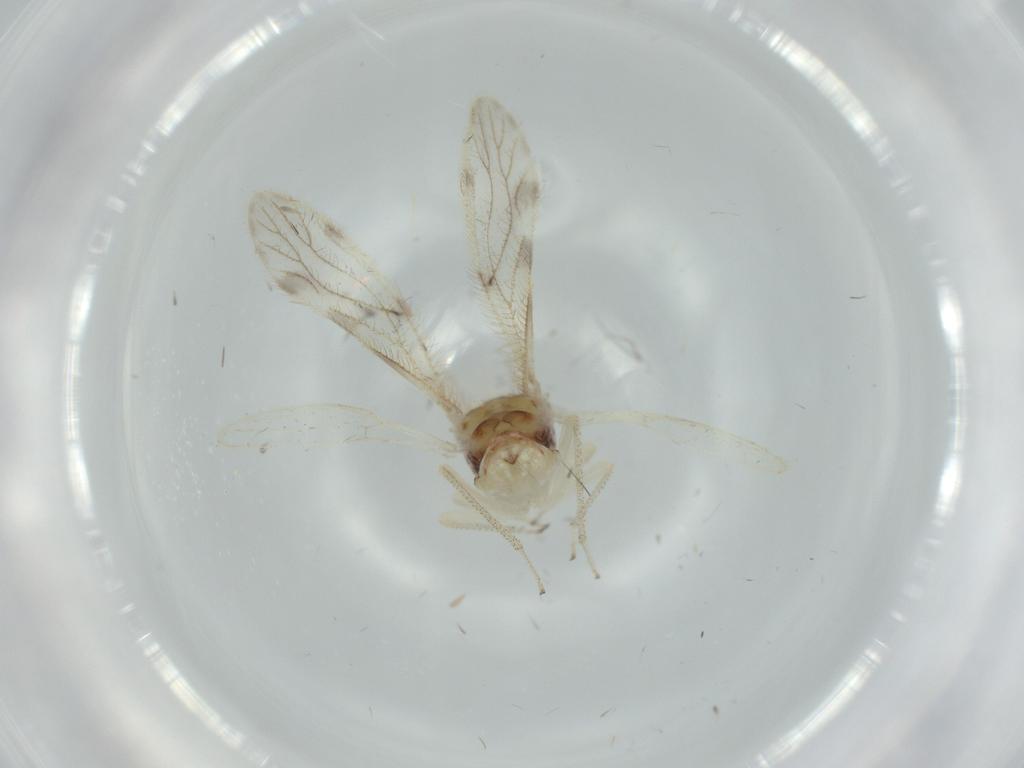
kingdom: Animalia
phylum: Arthropoda
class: Insecta
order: Psocodea
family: Pseudocaeciliidae
